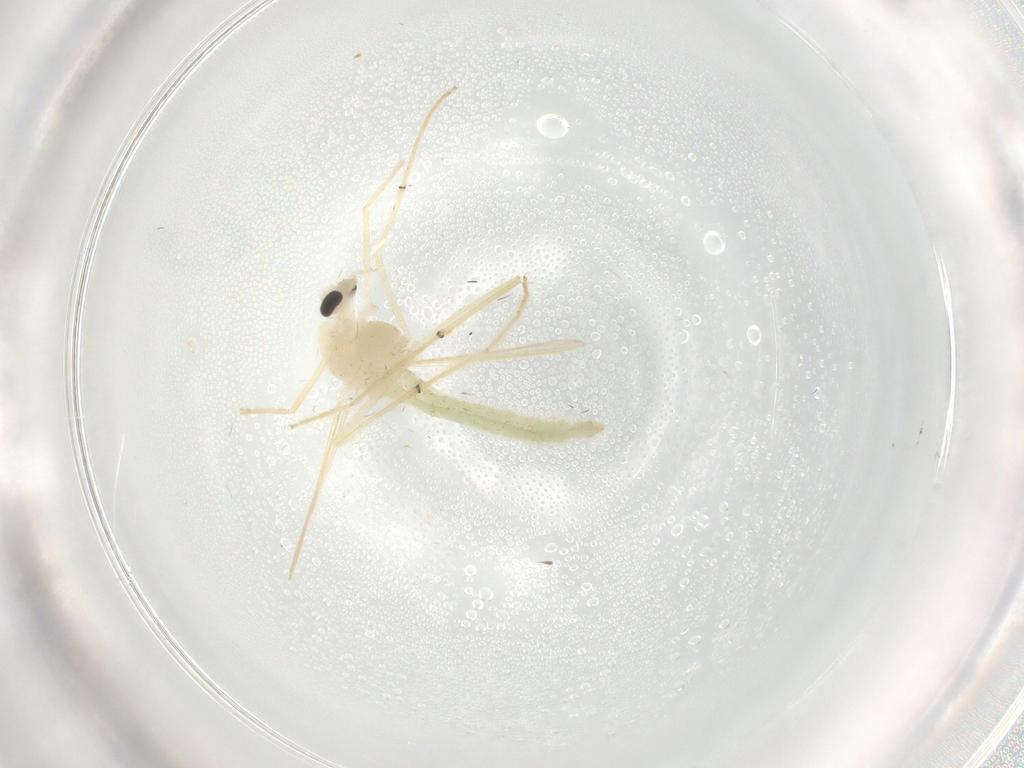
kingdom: Animalia
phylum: Arthropoda
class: Insecta
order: Diptera
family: Chironomidae
